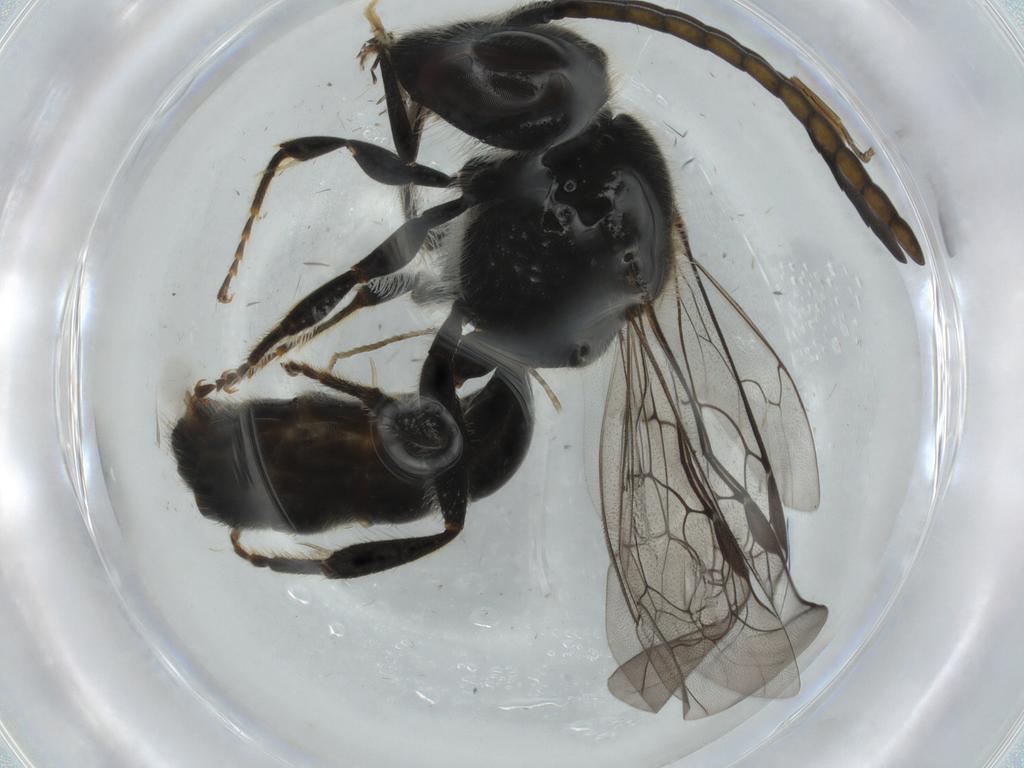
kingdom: Animalia
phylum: Arthropoda
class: Insecta
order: Hymenoptera
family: Halictidae
